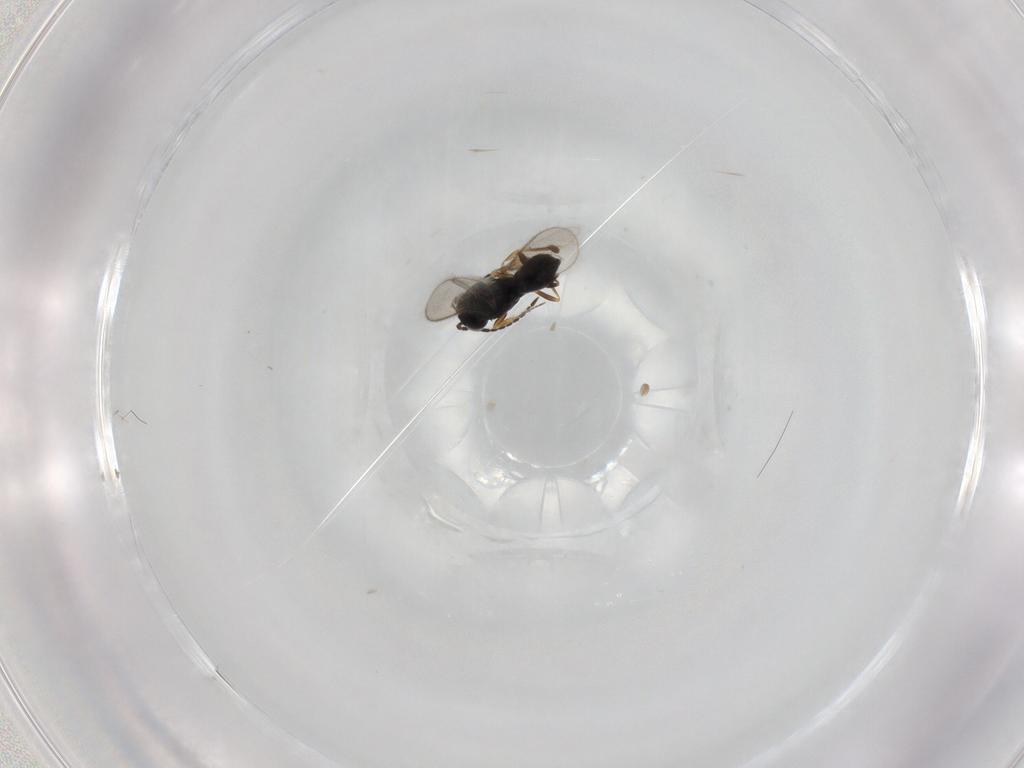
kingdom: Animalia
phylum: Arthropoda
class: Insecta
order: Hymenoptera
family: Scelionidae
